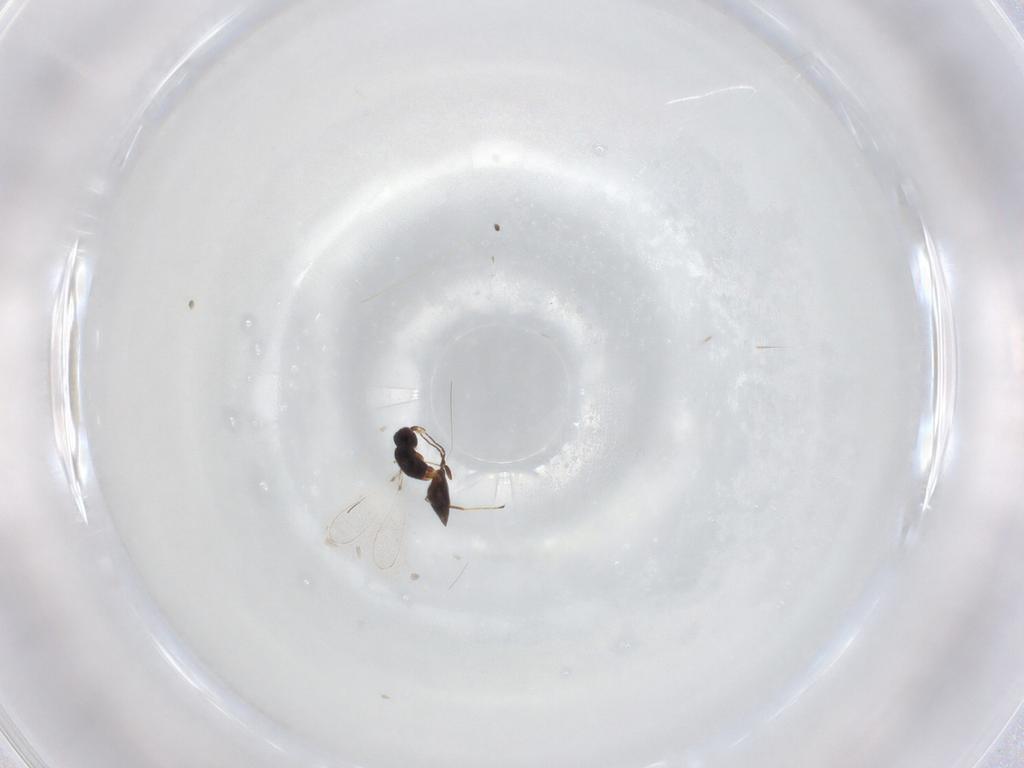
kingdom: Animalia
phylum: Arthropoda
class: Insecta
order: Hymenoptera
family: Mymaridae
